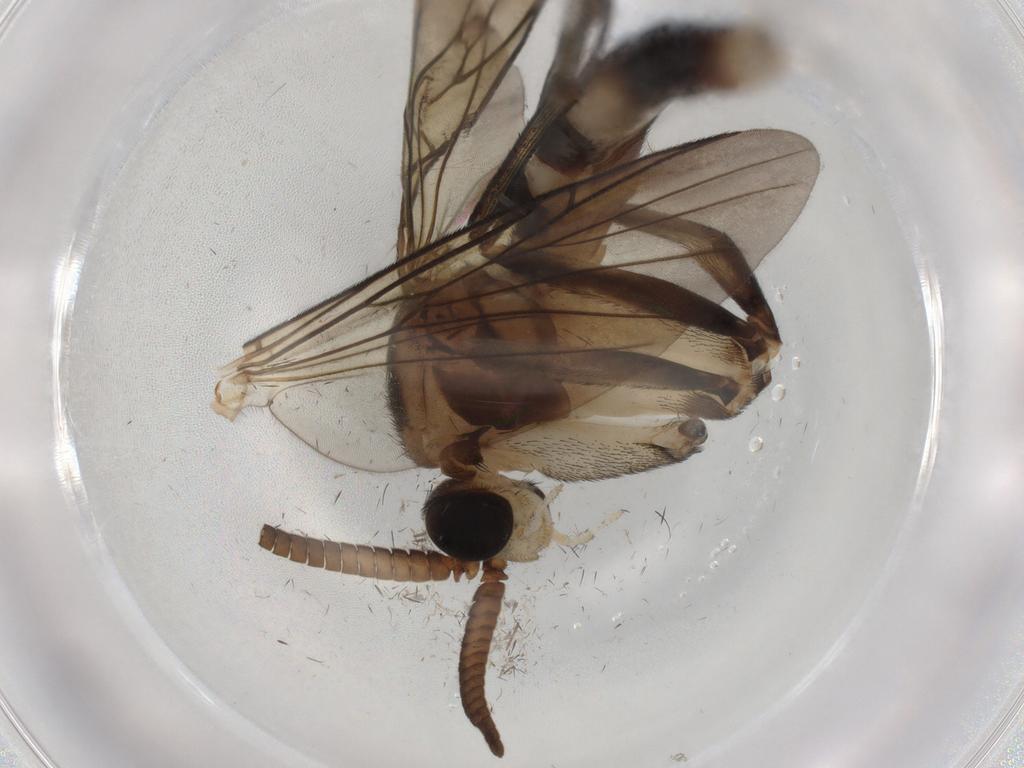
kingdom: Animalia
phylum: Arthropoda
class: Insecta
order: Diptera
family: Keroplatidae
